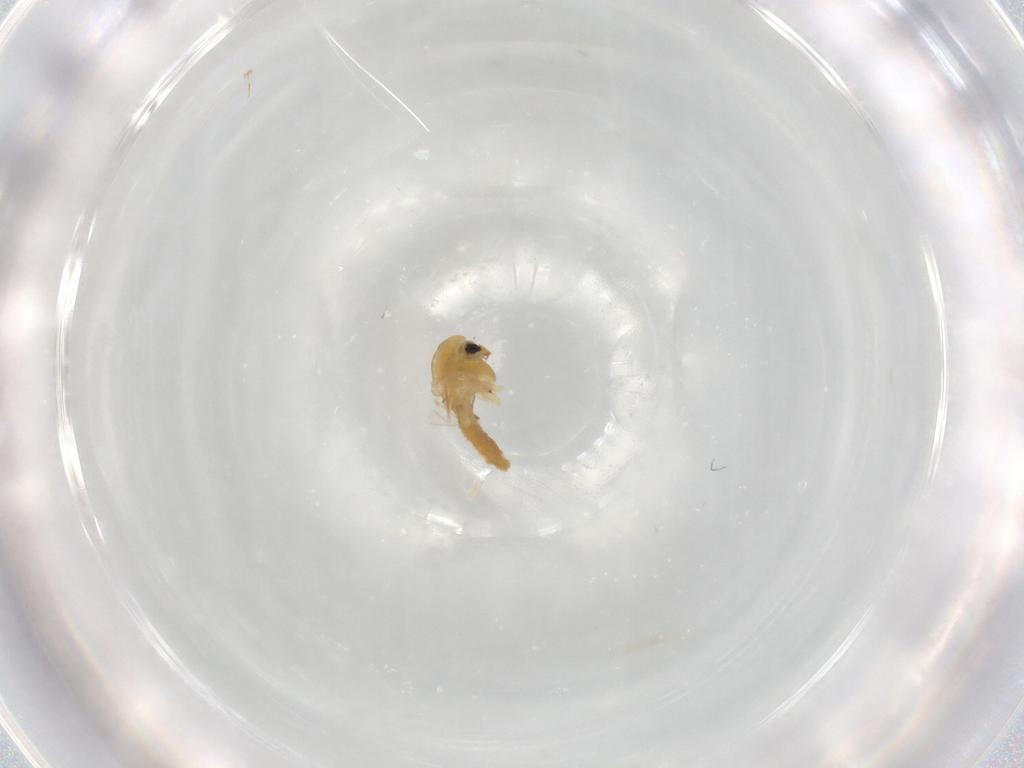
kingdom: Animalia
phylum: Arthropoda
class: Insecta
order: Diptera
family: Chironomidae
